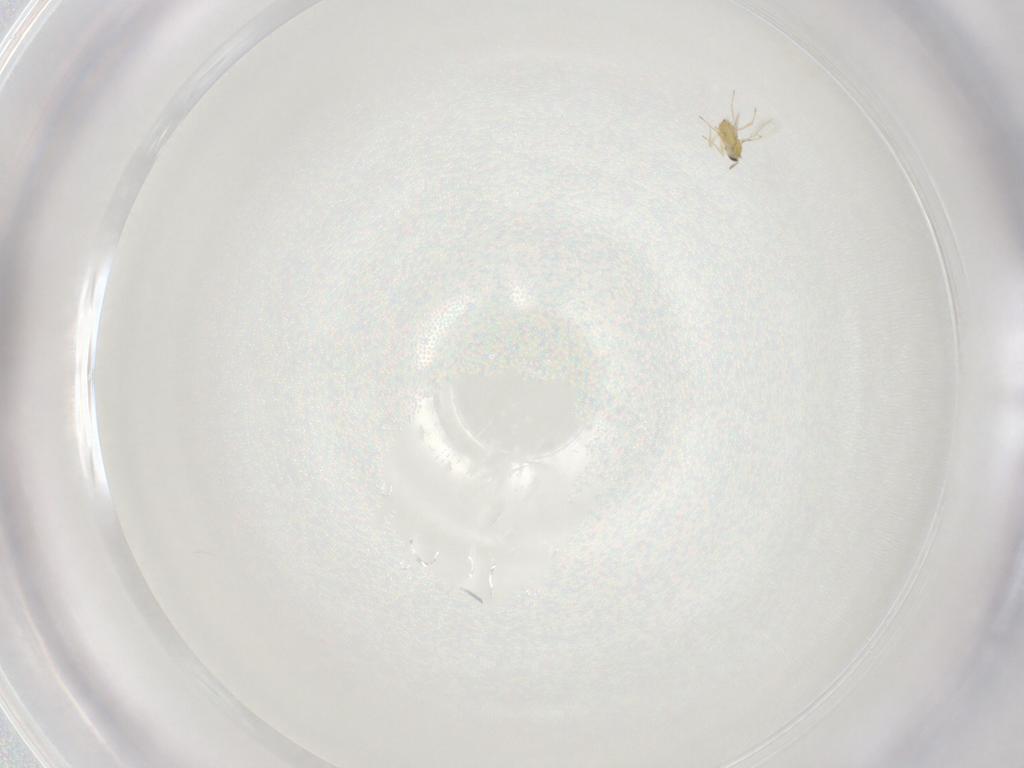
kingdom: Animalia
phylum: Arthropoda
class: Insecta
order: Hymenoptera
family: Trichogrammatidae
